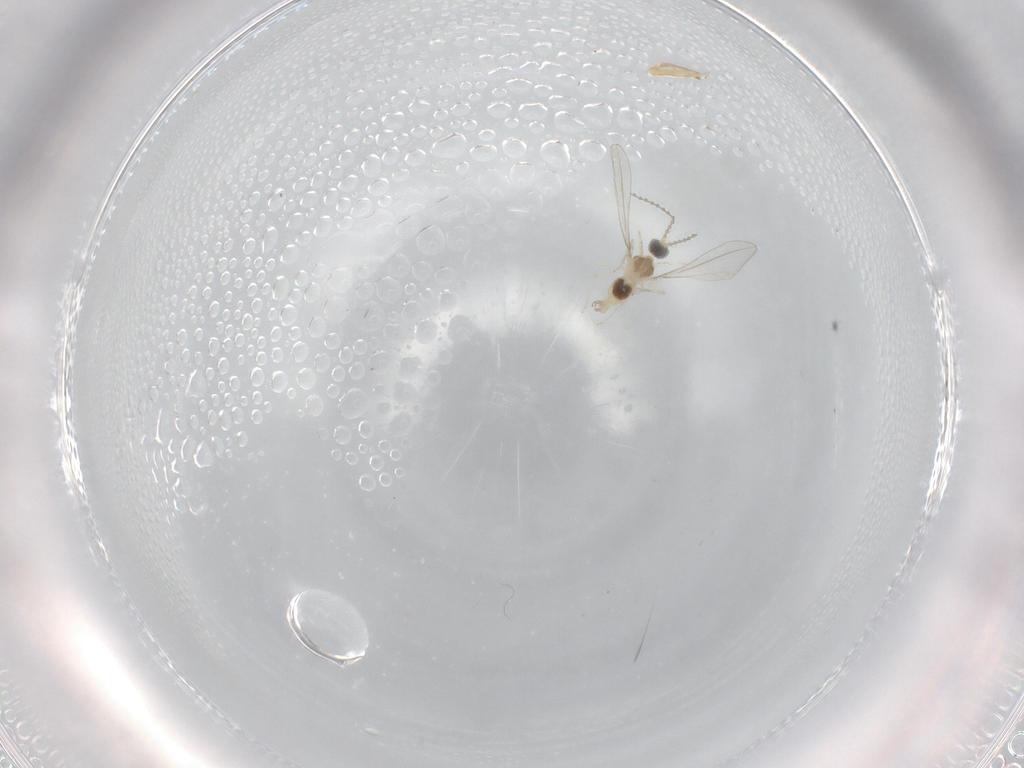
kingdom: Animalia
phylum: Arthropoda
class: Insecta
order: Diptera
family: Cecidomyiidae
